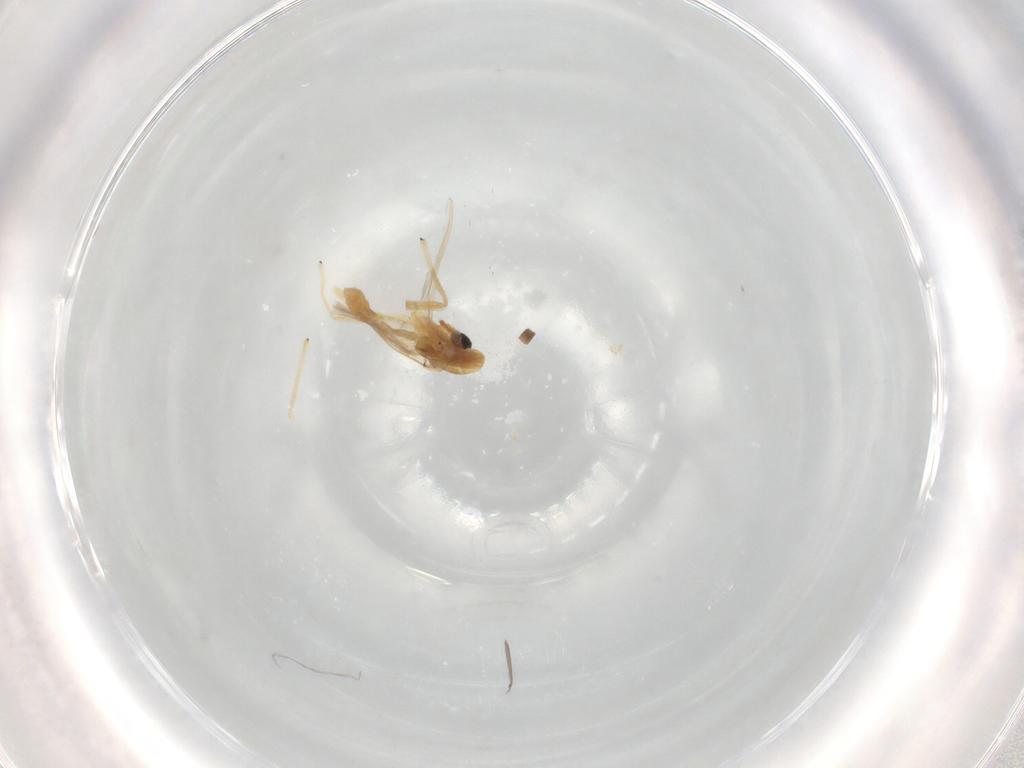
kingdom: Animalia
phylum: Arthropoda
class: Insecta
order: Diptera
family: Chironomidae
